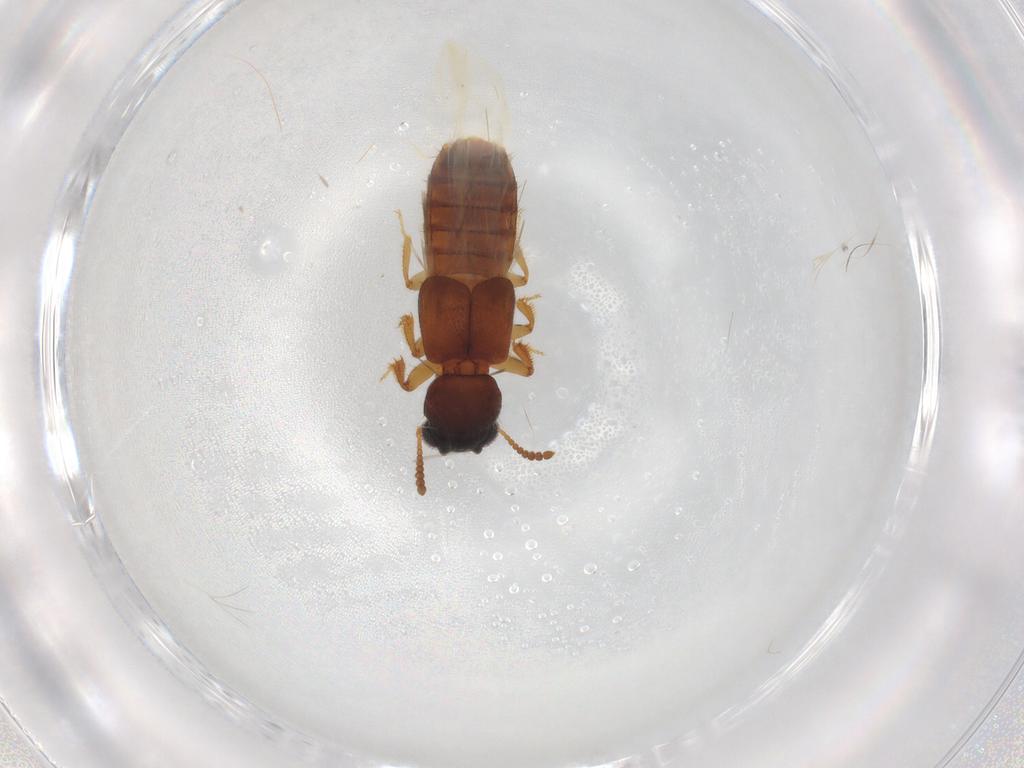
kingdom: Animalia
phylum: Arthropoda
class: Insecta
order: Coleoptera
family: Staphylinidae
